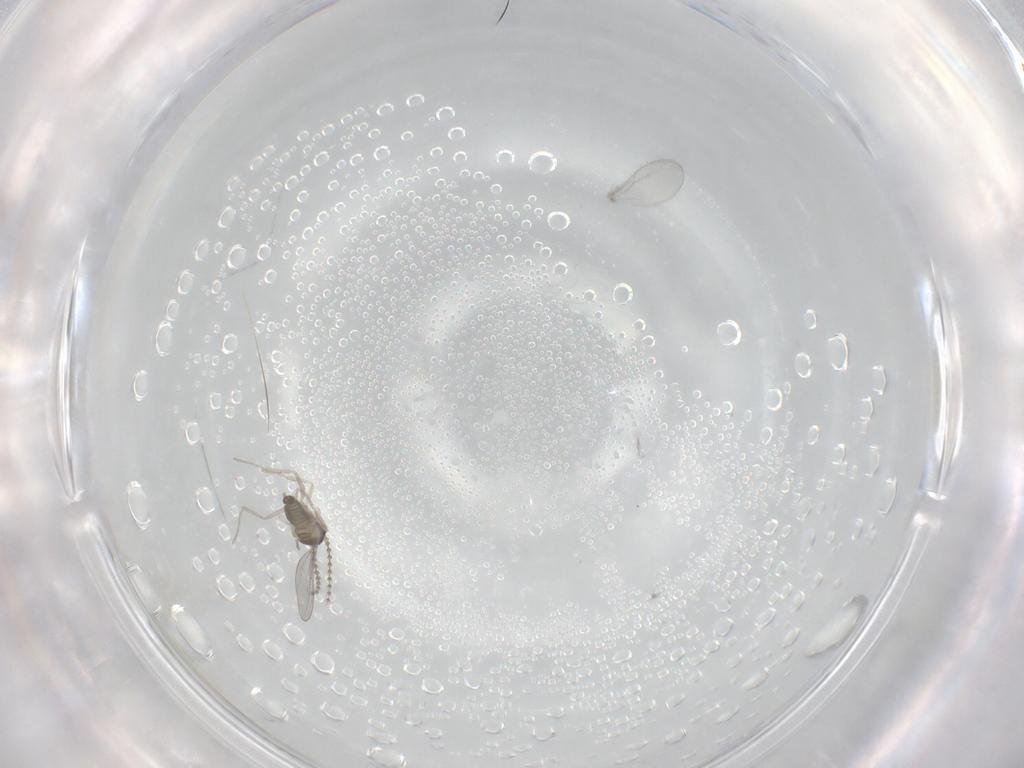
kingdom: Animalia
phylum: Arthropoda
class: Insecta
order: Diptera
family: Cecidomyiidae
